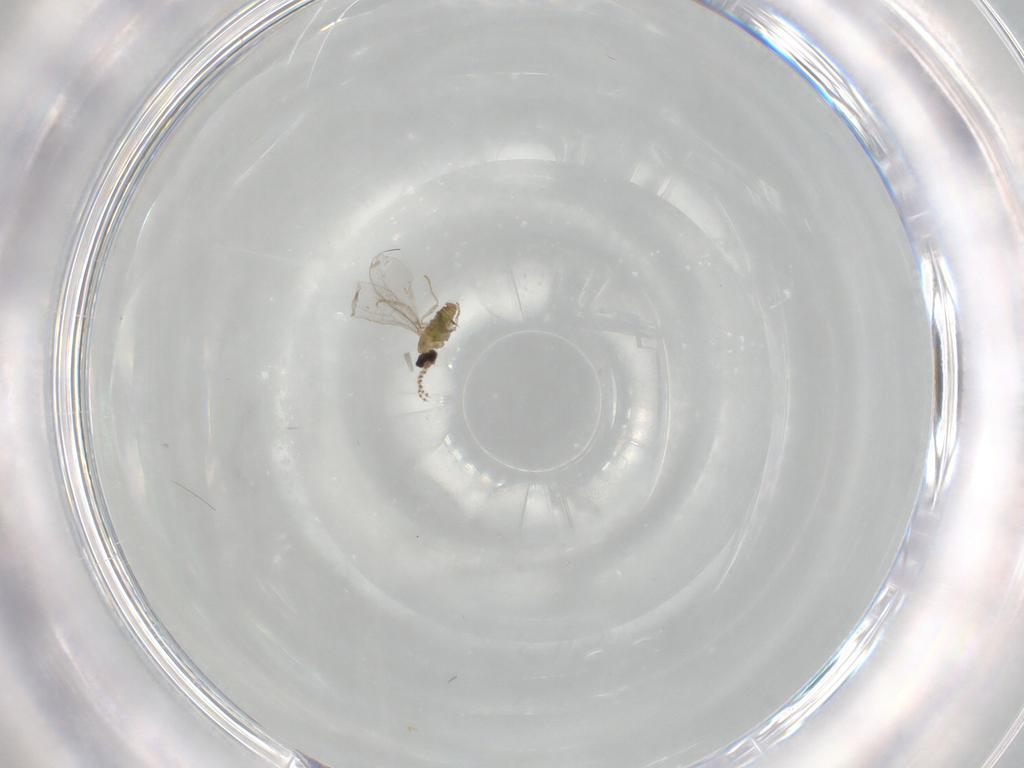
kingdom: Animalia
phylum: Arthropoda
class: Insecta
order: Diptera
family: Cecidomyiidae
